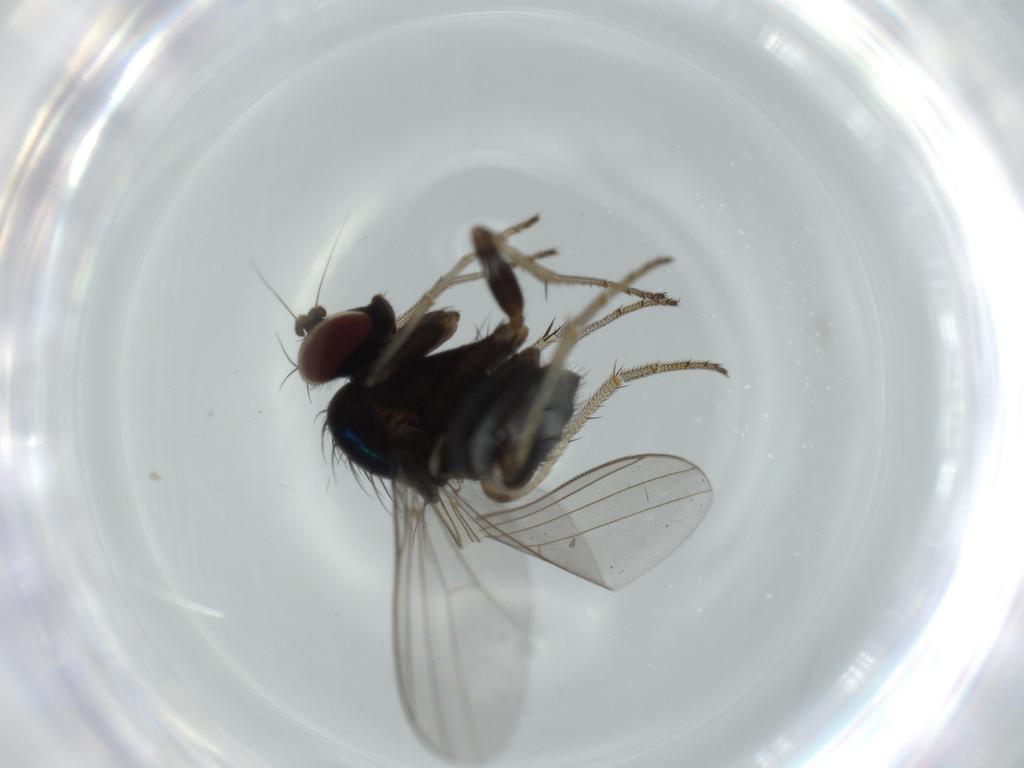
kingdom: Animalia
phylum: Arthropoda
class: Insecta
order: Diptera
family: Dolichopodidae
